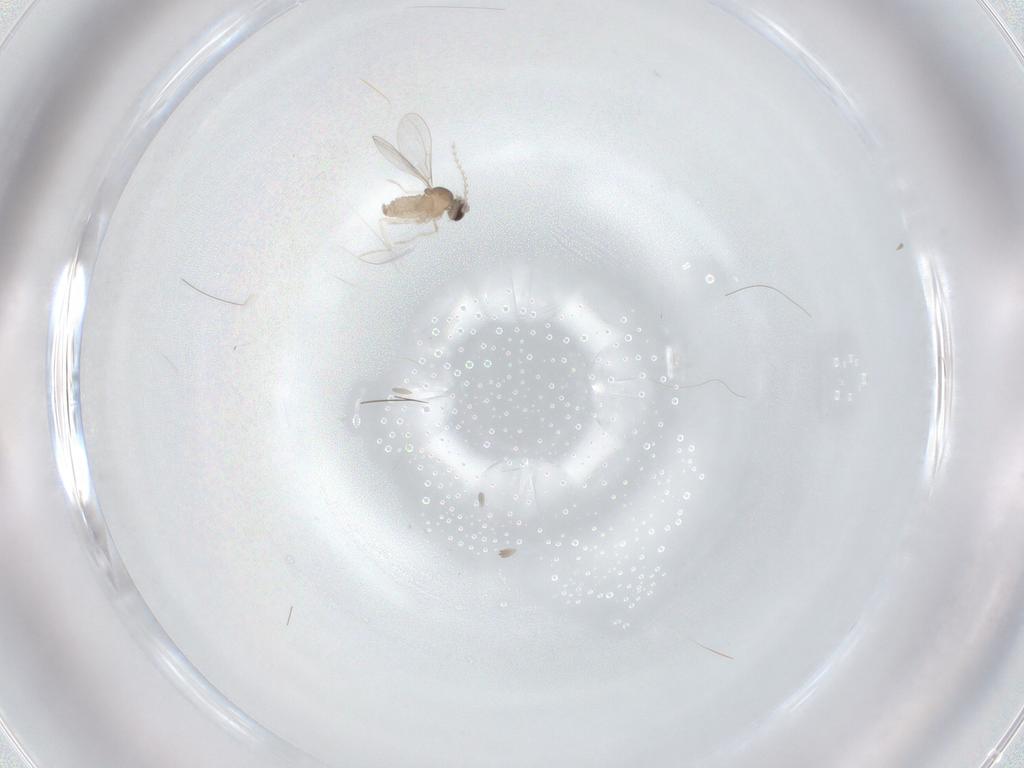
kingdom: Animalia
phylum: Arthropoda
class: Insecta
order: Diptera
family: Cecidomyiidae
